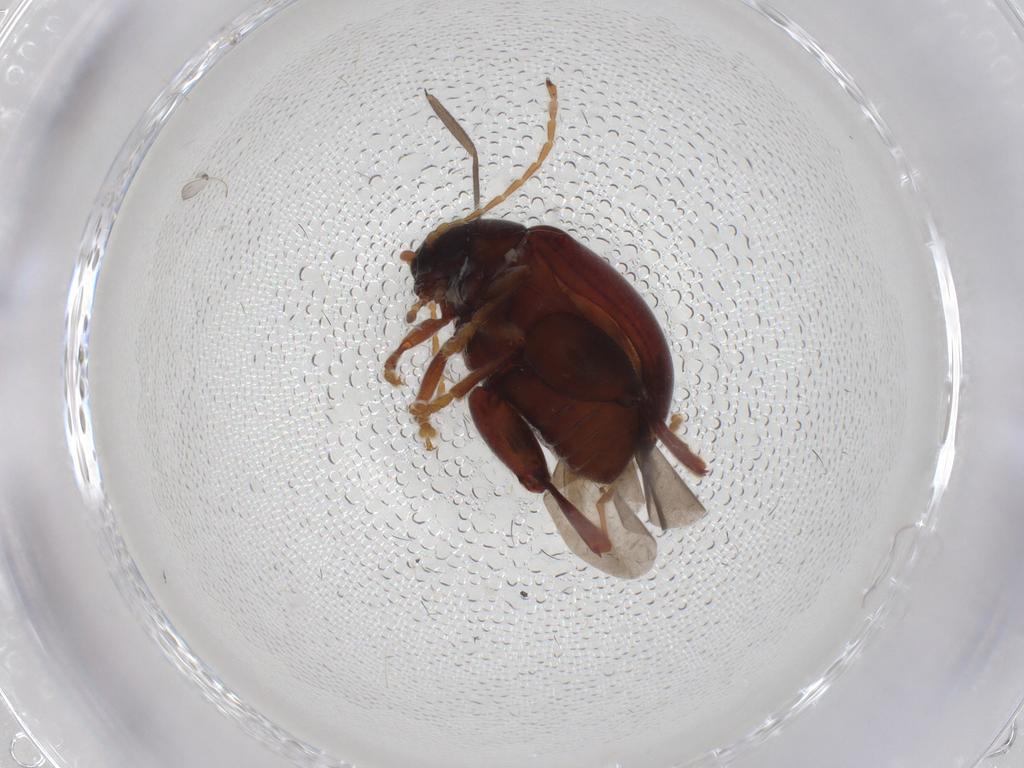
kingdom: Animalia
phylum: Arthropoda
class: Insecta
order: Coleoptera
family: Chrysomelidae
